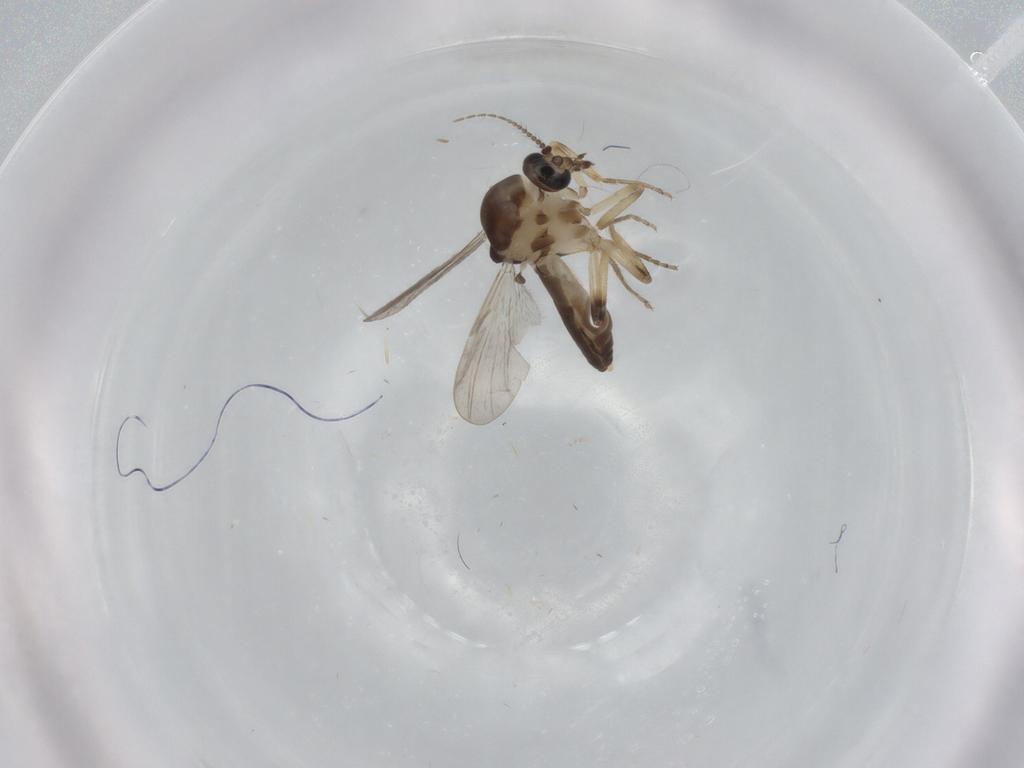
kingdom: Animalia
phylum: Arthropoda
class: Insecta
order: Diptera
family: Ceratopogonidae
